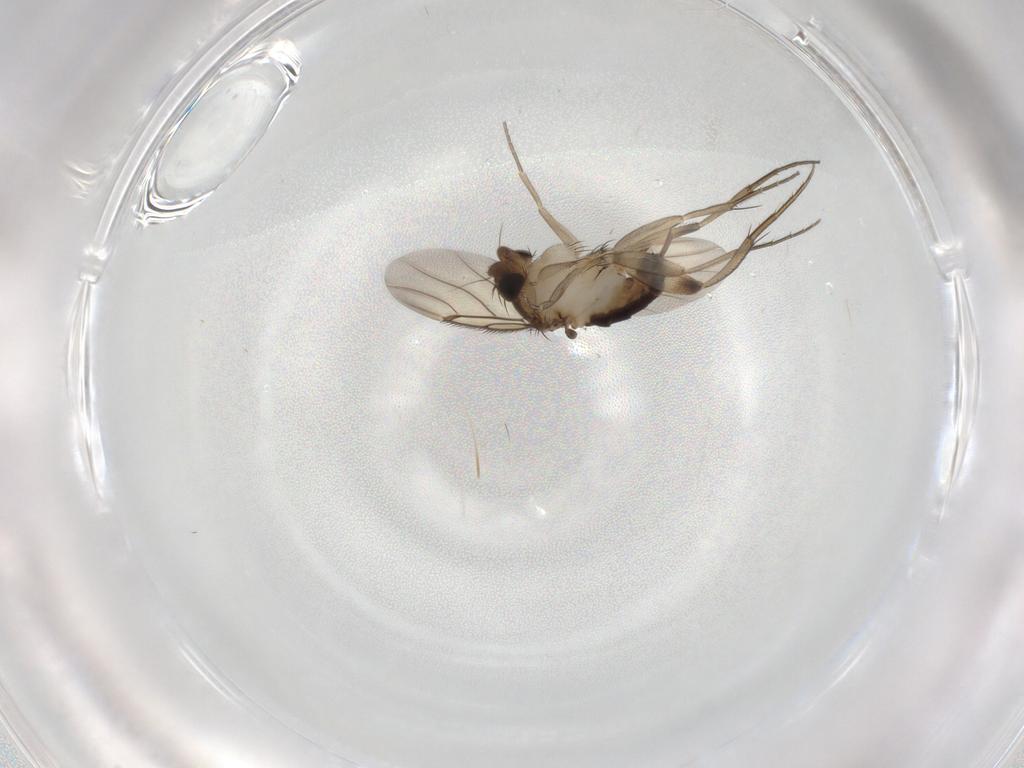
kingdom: Animalia
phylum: Arthropoda
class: Insecta
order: Diptera
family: Phoridae
